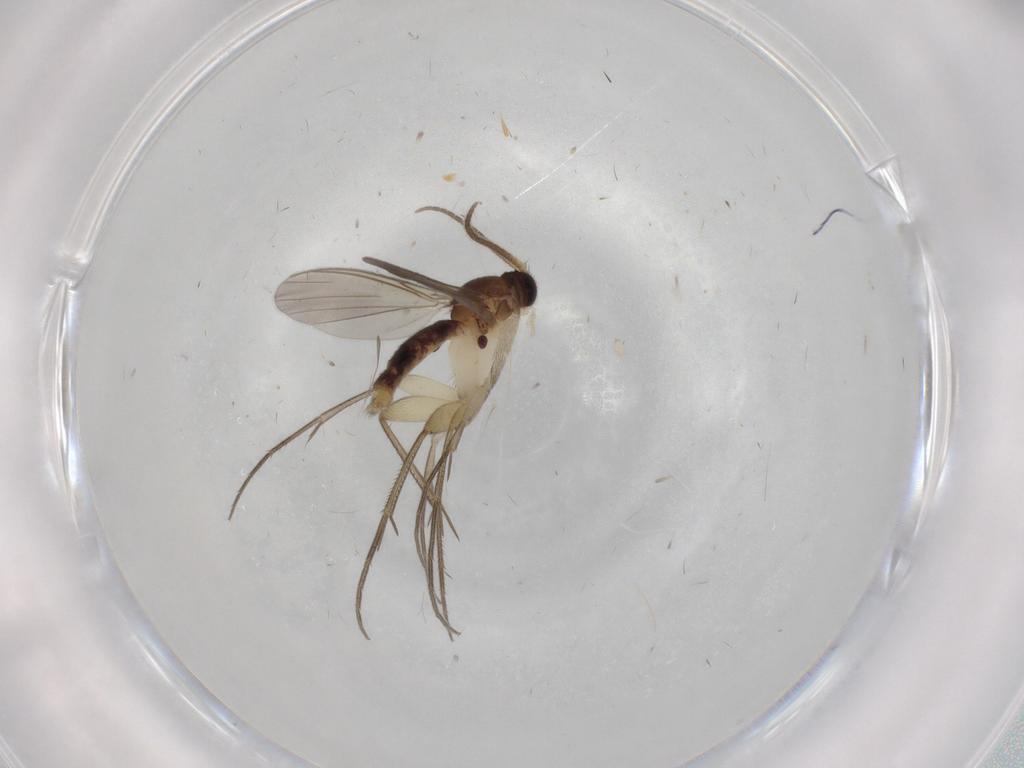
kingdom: Animalia
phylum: Arthropoda
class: Insecta
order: Diptera
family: Mycetophilidae
